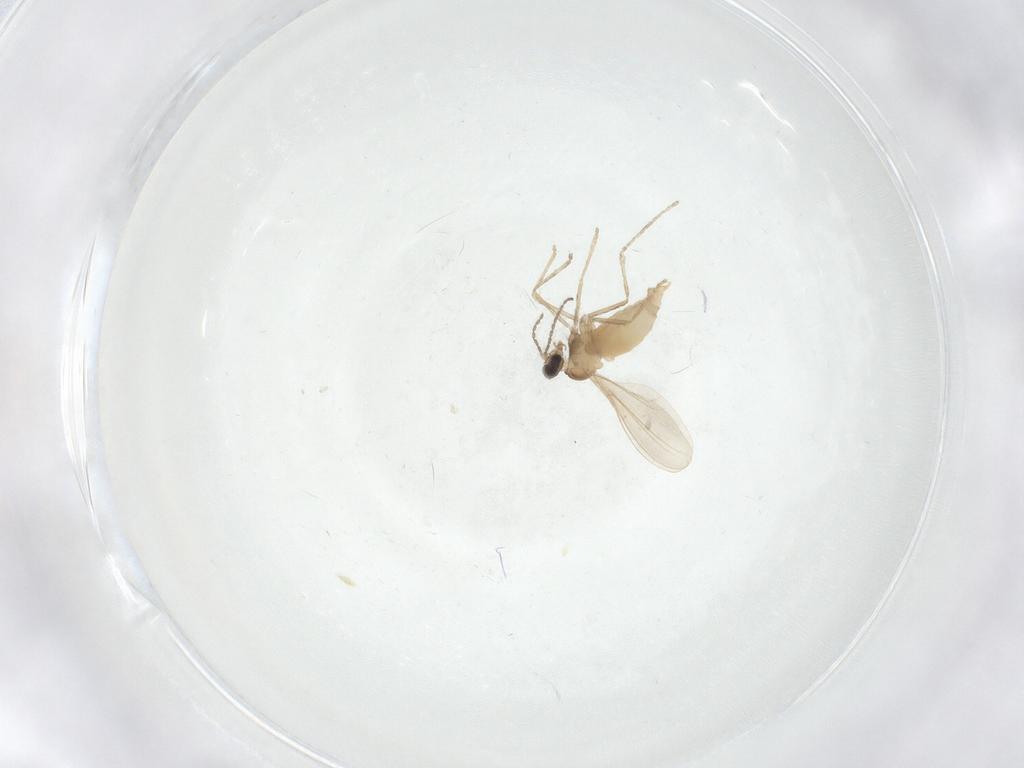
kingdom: Animalia
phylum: Arthropoda
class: Insecta
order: Diptera
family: Cecidomyiidae
